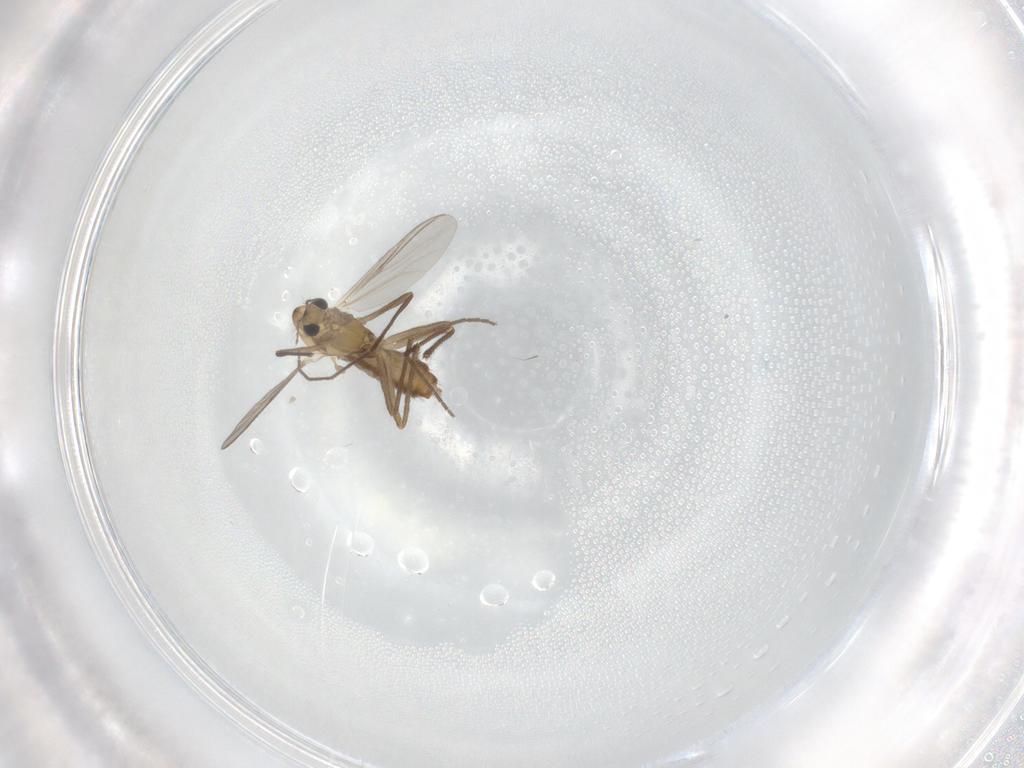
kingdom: Animalia
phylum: Arthropoda
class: Insecta
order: Diptera
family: Chironomidae
